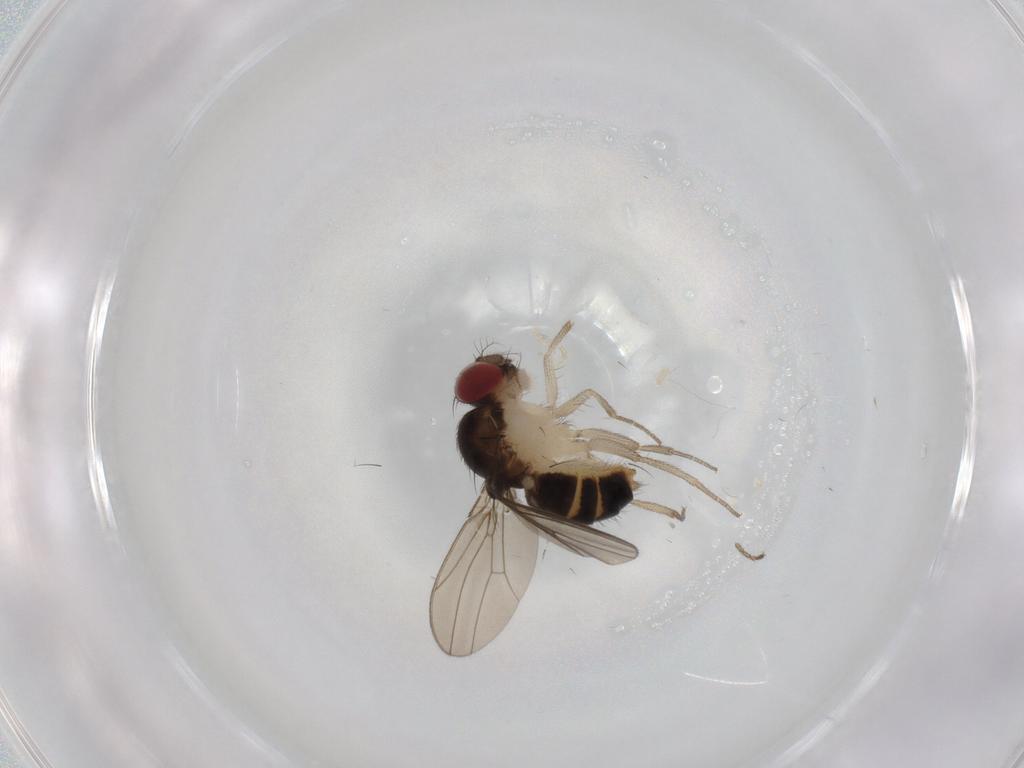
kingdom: Animalia
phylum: Arthropoda
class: Insecta
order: Diptera
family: Drosophilidae
